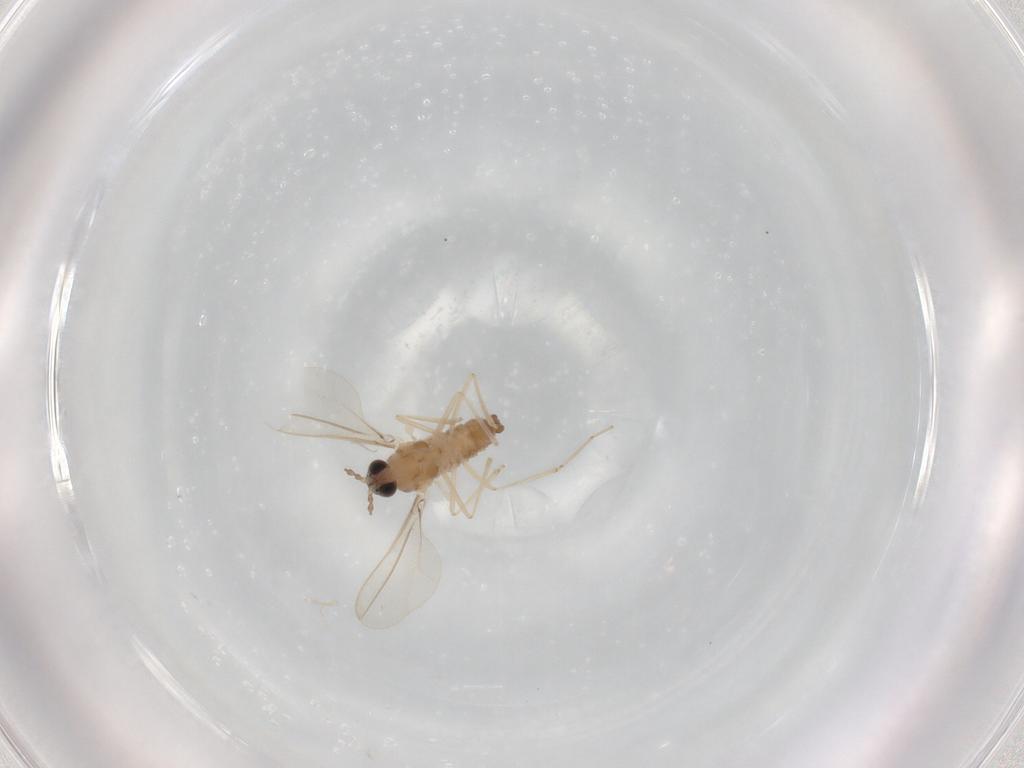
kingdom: Animalia
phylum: Arthropoda
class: Insecta
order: Diptera
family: Cecidomyiidae
